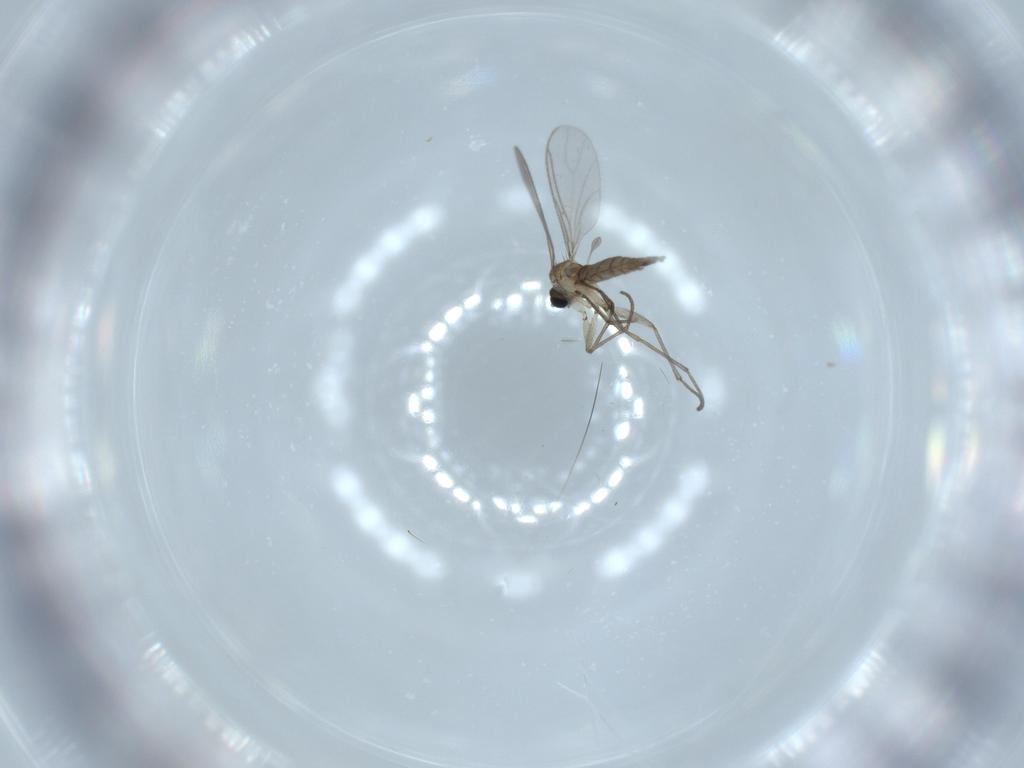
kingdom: Animalia
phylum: Arthropoda
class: Insecta
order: Diptera
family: Sciaridae
